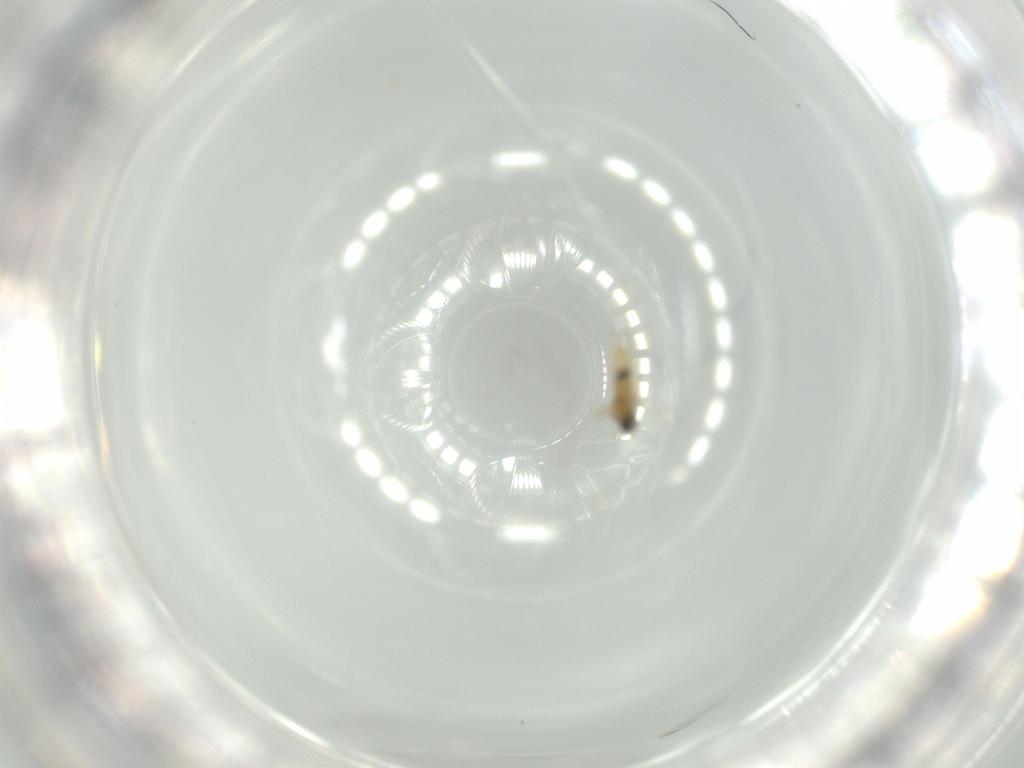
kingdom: Animalia
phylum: Arthropoda
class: Insecta
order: Diptera
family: Cecidomyiidae
